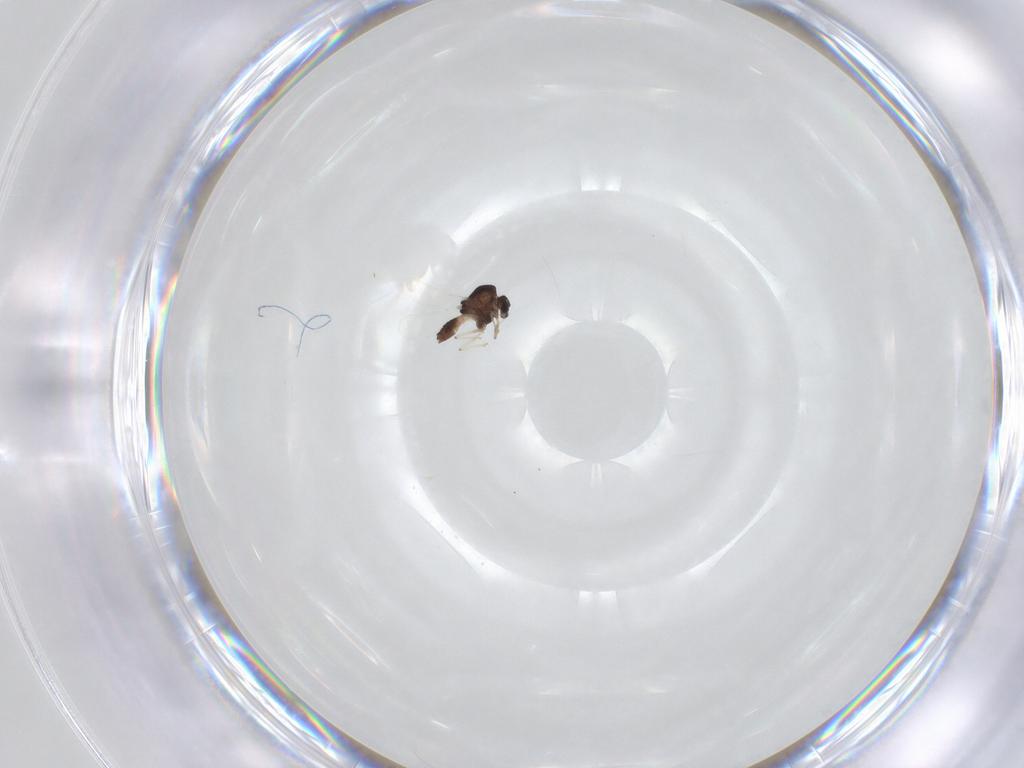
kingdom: Animalia
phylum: Arthropoda
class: Insecta
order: Diptera
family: Chironomidae
